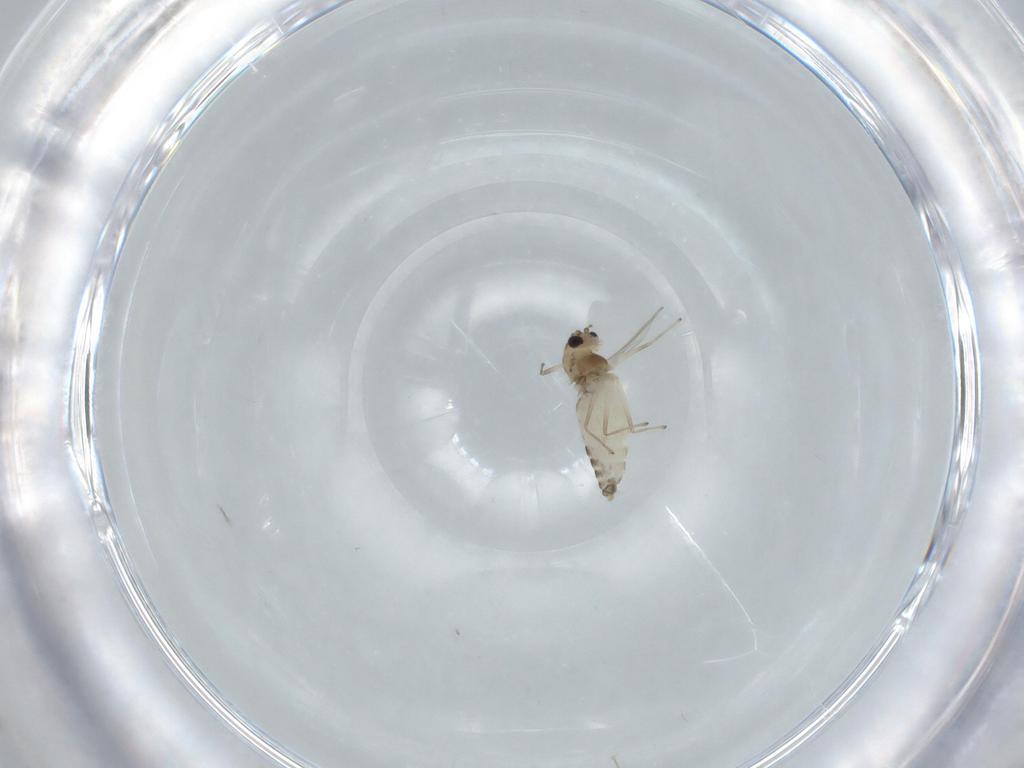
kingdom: Animalia
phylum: Arthropoda
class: Insecta
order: Diptera
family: Chironomidae
